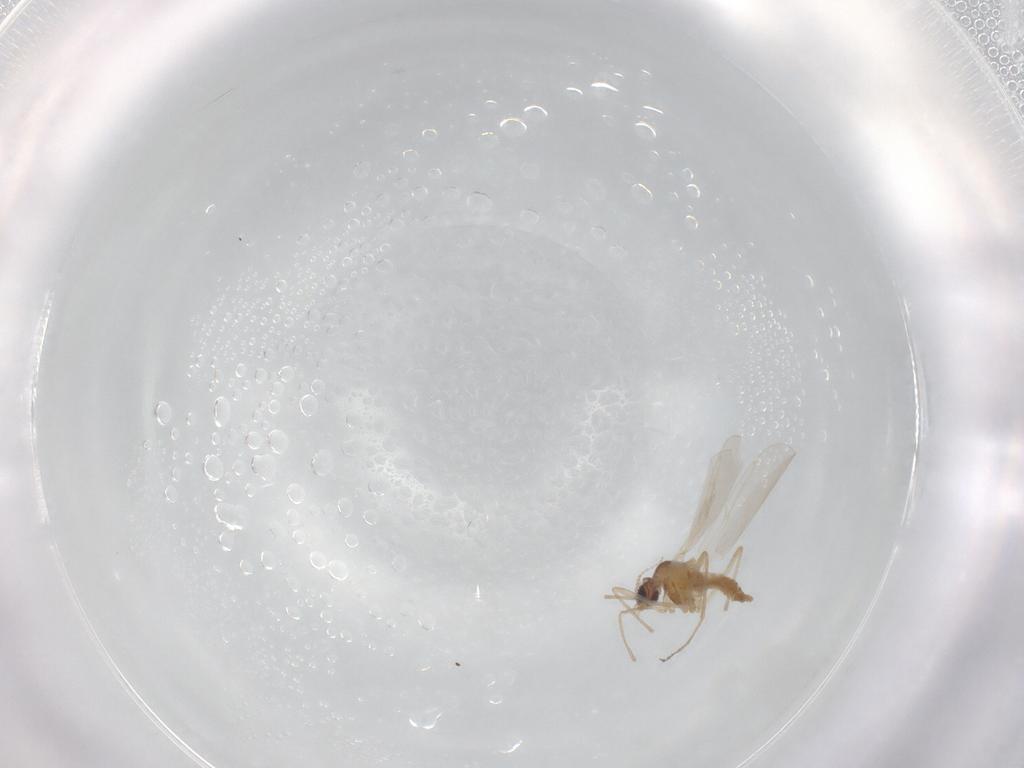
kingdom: Animalia
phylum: Arthropoda
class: Insecta
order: Diptera
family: Cecidomyiidae
